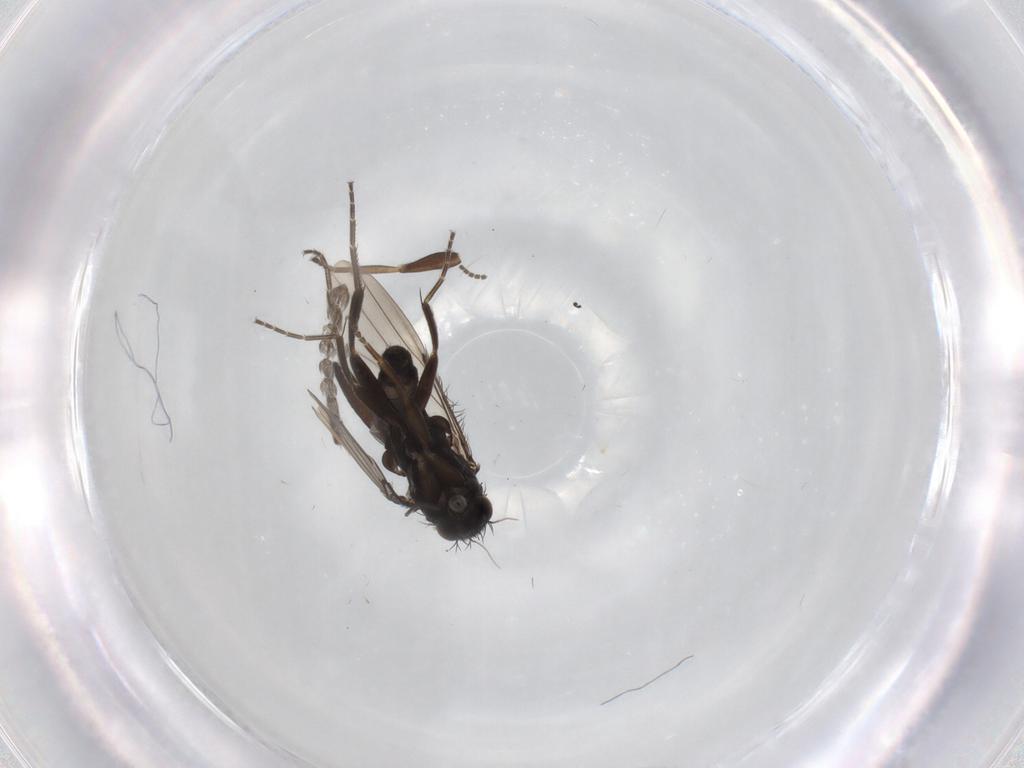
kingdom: Animalia
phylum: Arthropoda
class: Insecta
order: Diptera
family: Phoridae
